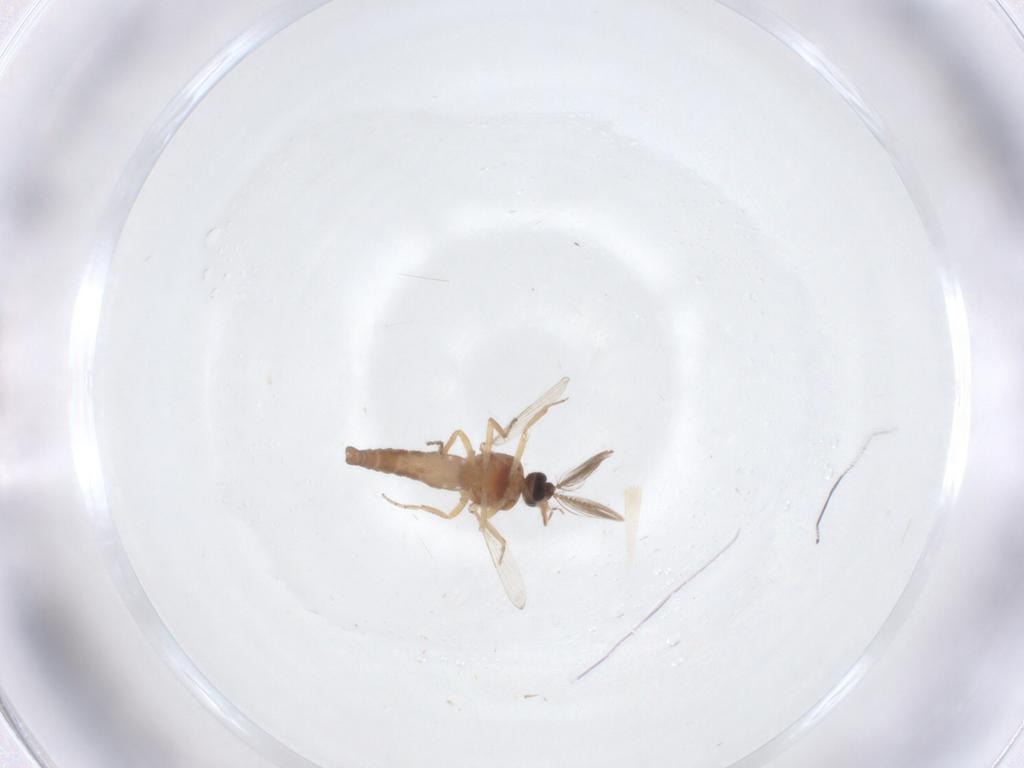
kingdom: Animalia
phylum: Arthropoda
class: Insecta
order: Diptera
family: Ceratopogonidae
